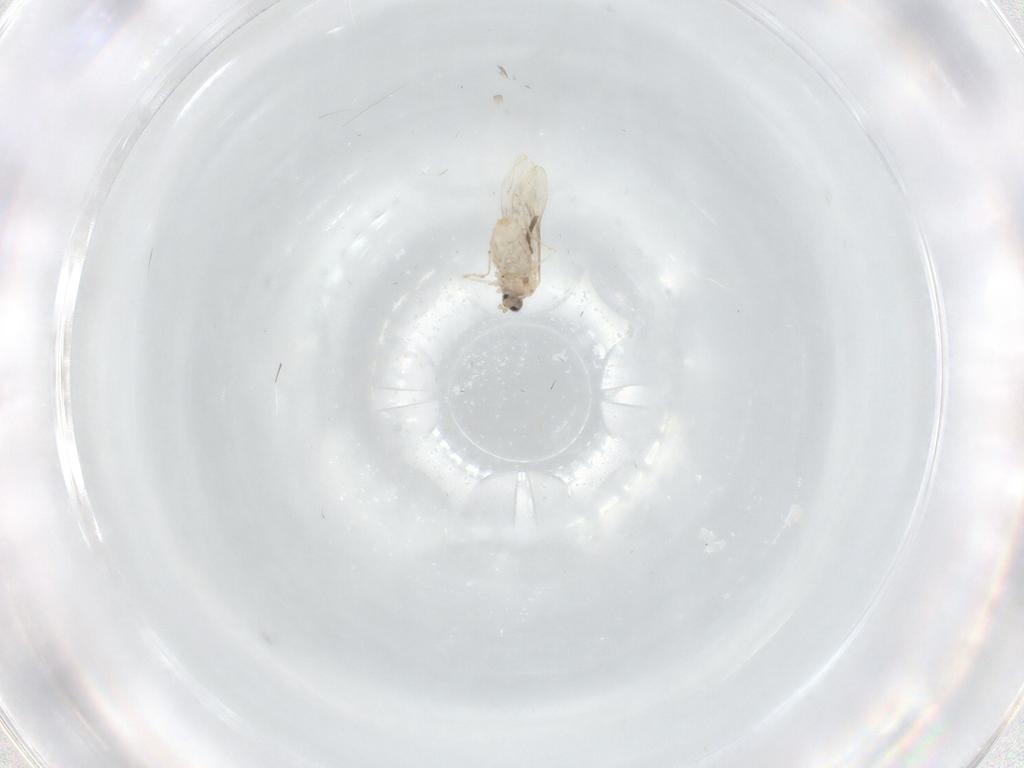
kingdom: Animalia
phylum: Arthropoda
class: Insecta
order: Diptera
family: Psychodidae
